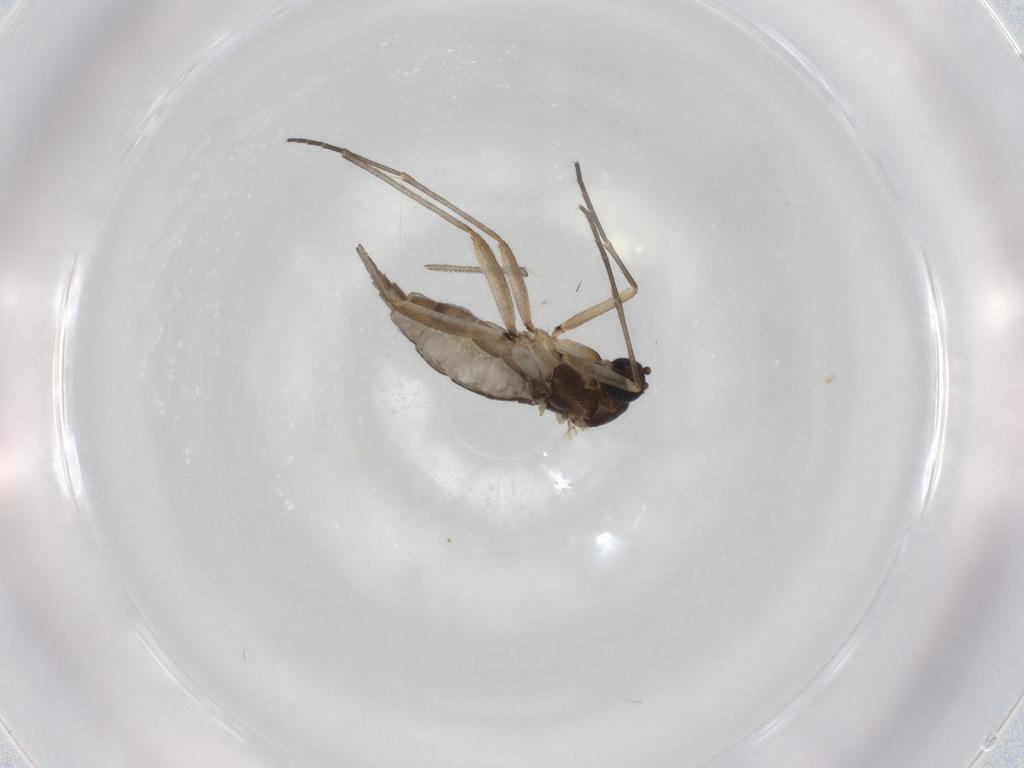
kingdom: Animalia
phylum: Arthropoda
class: Insecta
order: Diptera
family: Sciaridae
